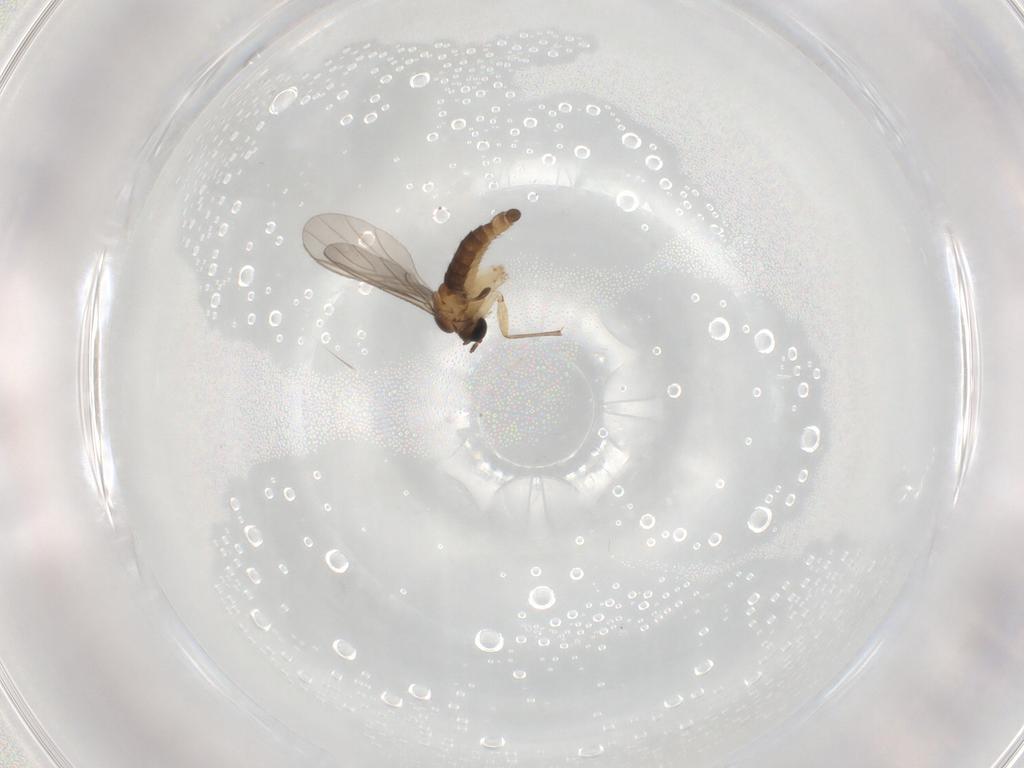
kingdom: Animalia
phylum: Arthropoda
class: Insecta
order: Diptera
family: Sciaridae
